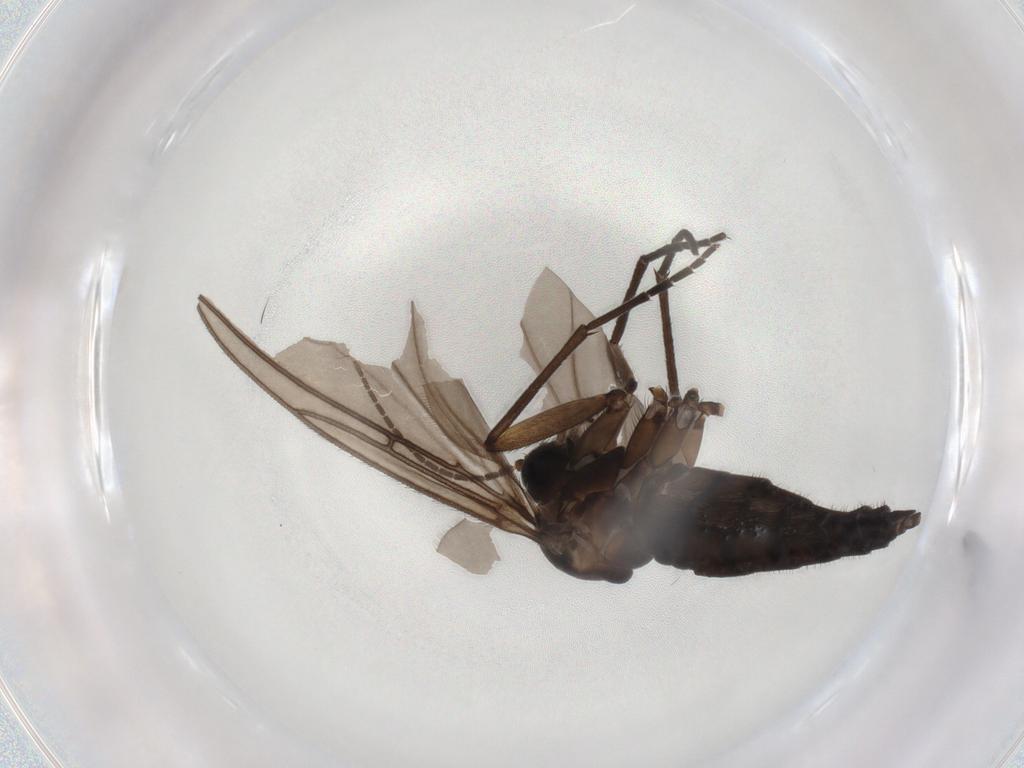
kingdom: Animalia
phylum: Arthropoda
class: Insecta
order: Diptera
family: Sciaridae
